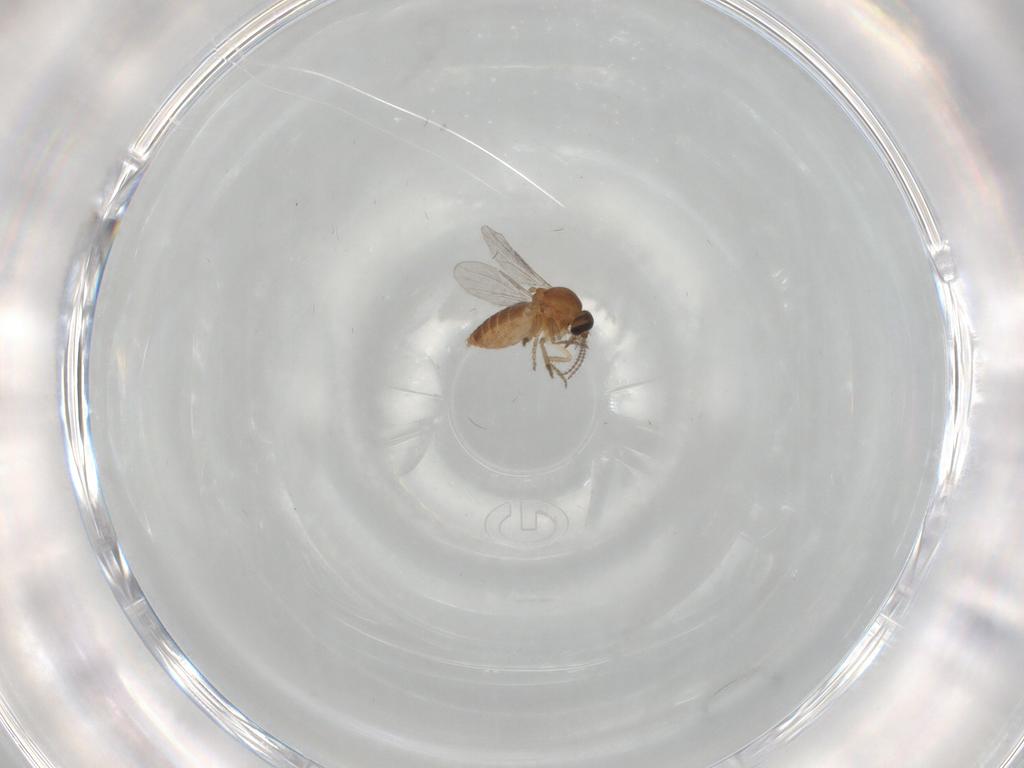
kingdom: Animalia
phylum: Arthropoda
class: Insecta
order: Diptera
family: Ceratopogonidae
